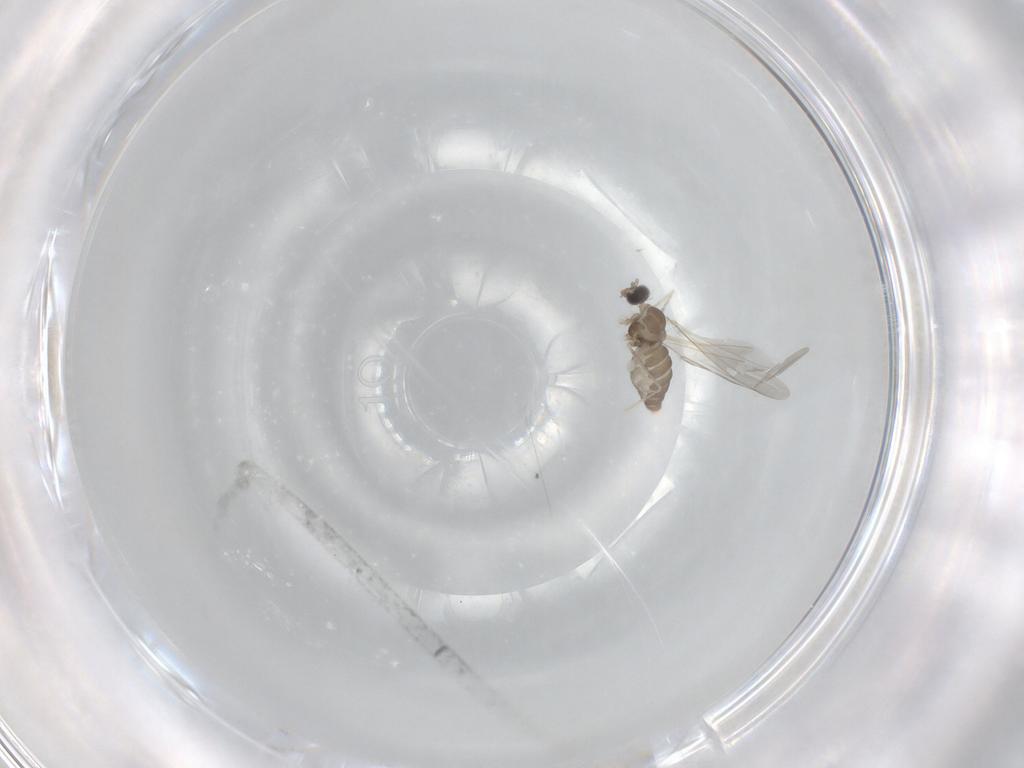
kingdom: Animalia
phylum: Arthropoda
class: Insecta
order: Diptera
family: Cecidomyiidae
